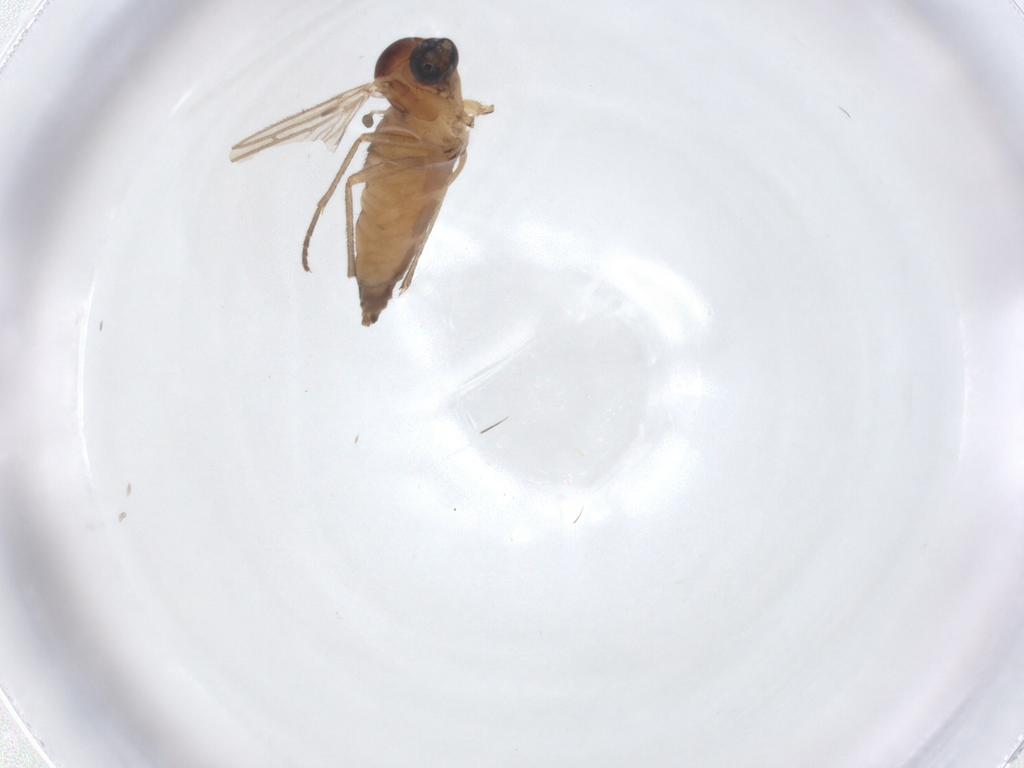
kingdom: Animalia
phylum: Arthropoda
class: Insecta
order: Diptera
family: Sciaridae
